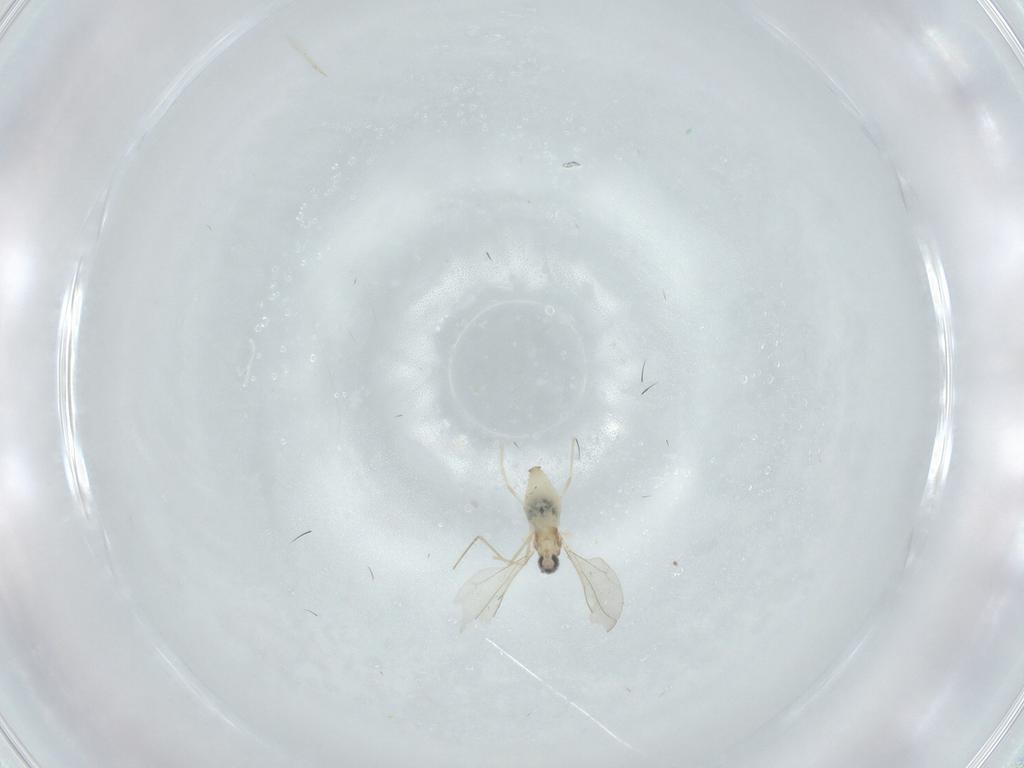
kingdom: Animalia
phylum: Arthropoda
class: Insecta
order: Diptera
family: Cecidomyiidae
